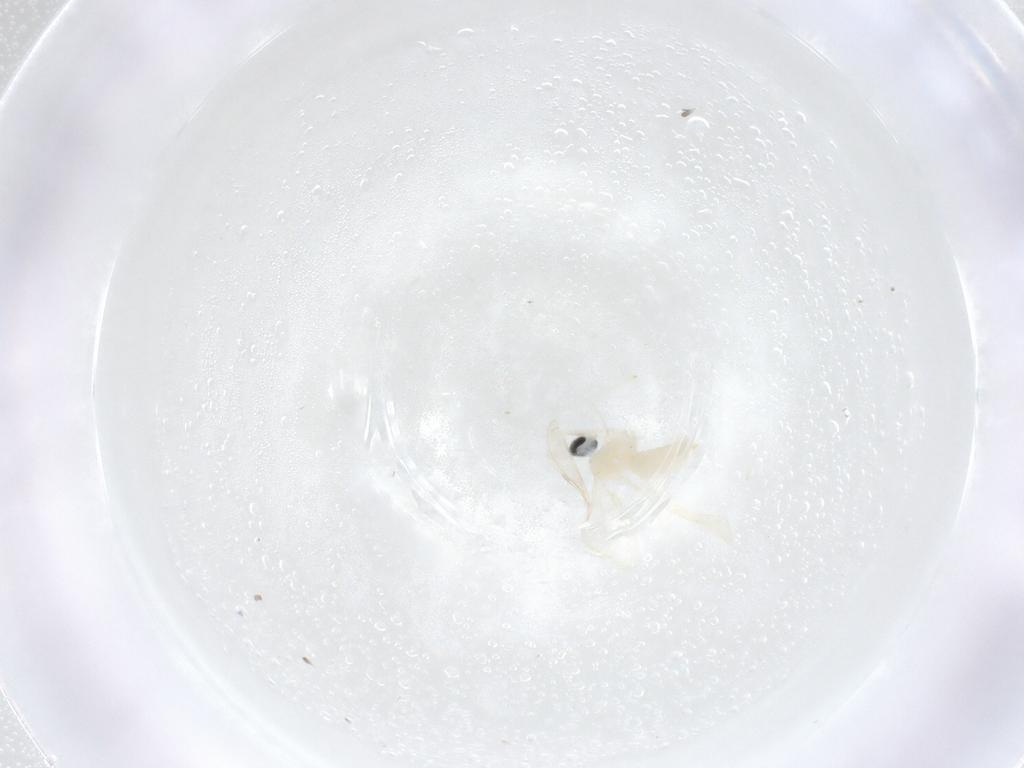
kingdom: Animalia
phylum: Arthropoda
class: Insecta
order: Diptera
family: Cecidomyiidae
